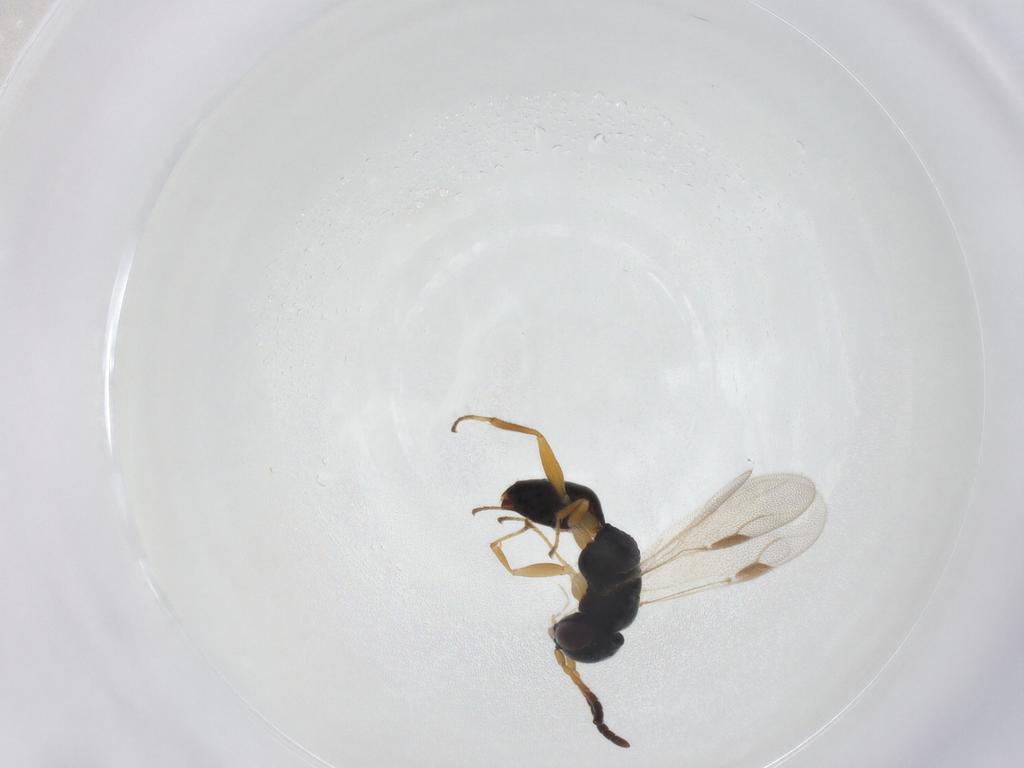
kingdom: Animalia
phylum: Arthropoda
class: Insecta
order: Hymenoptera
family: Dryinidae
